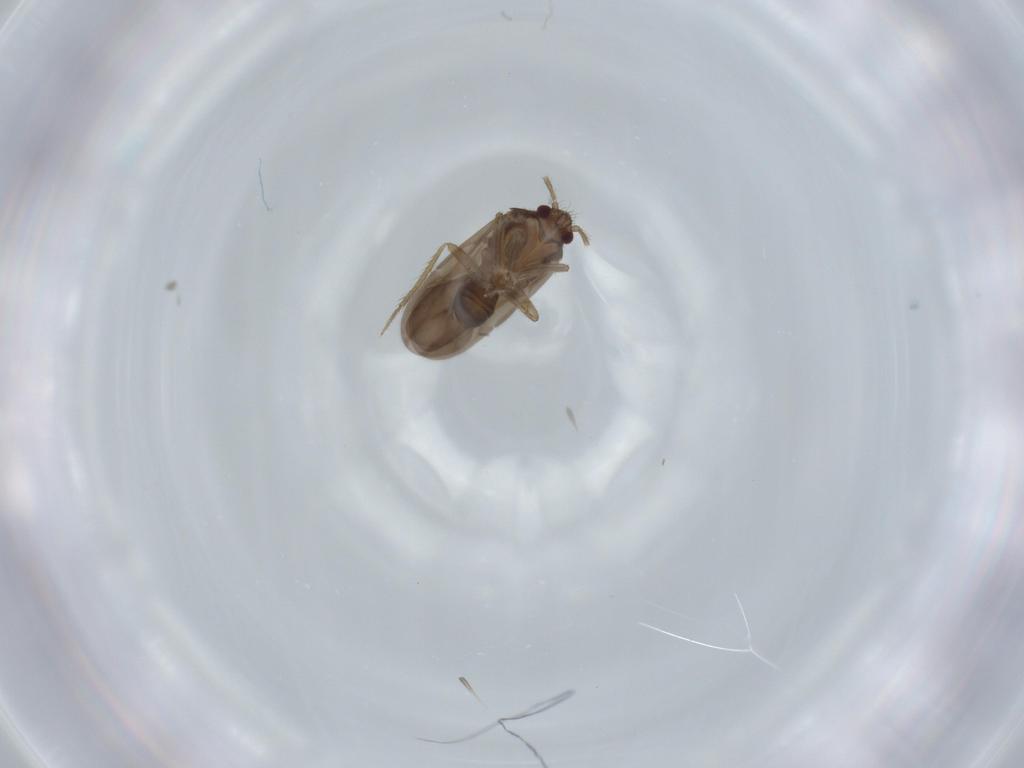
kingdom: Animalia
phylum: Arthropoda
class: Insecta
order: Hemiptera
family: Ceratocombidae
